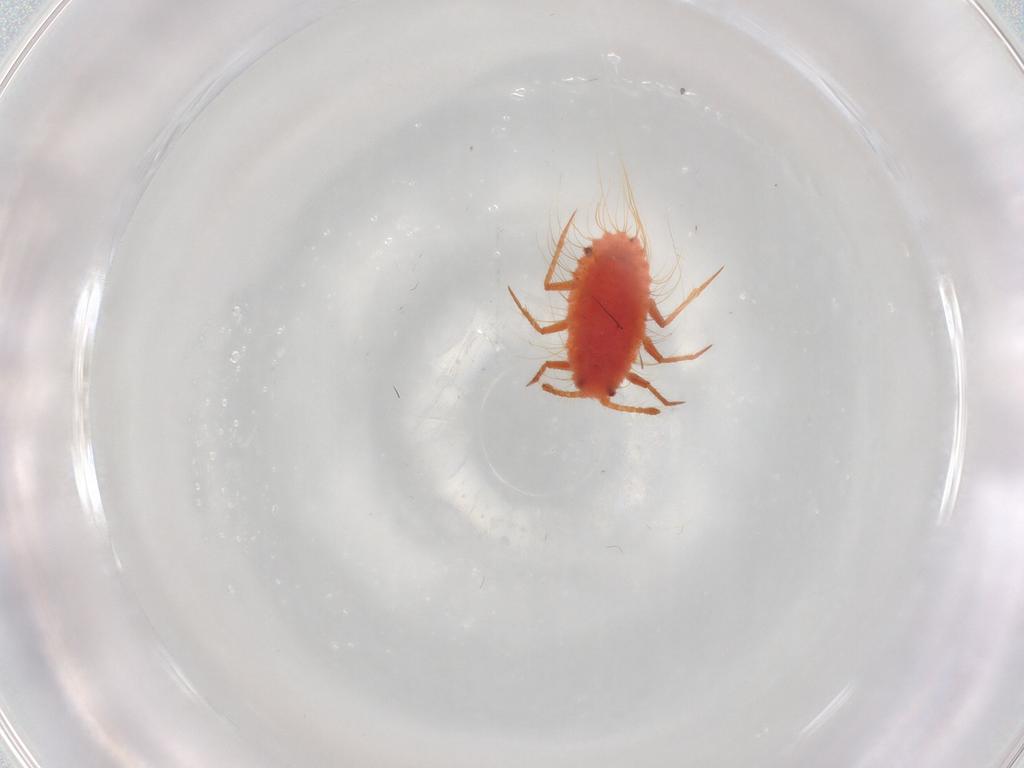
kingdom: Animalia
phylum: Arthropoda
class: Insecta
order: Hemiptera
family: Monophlebidae
